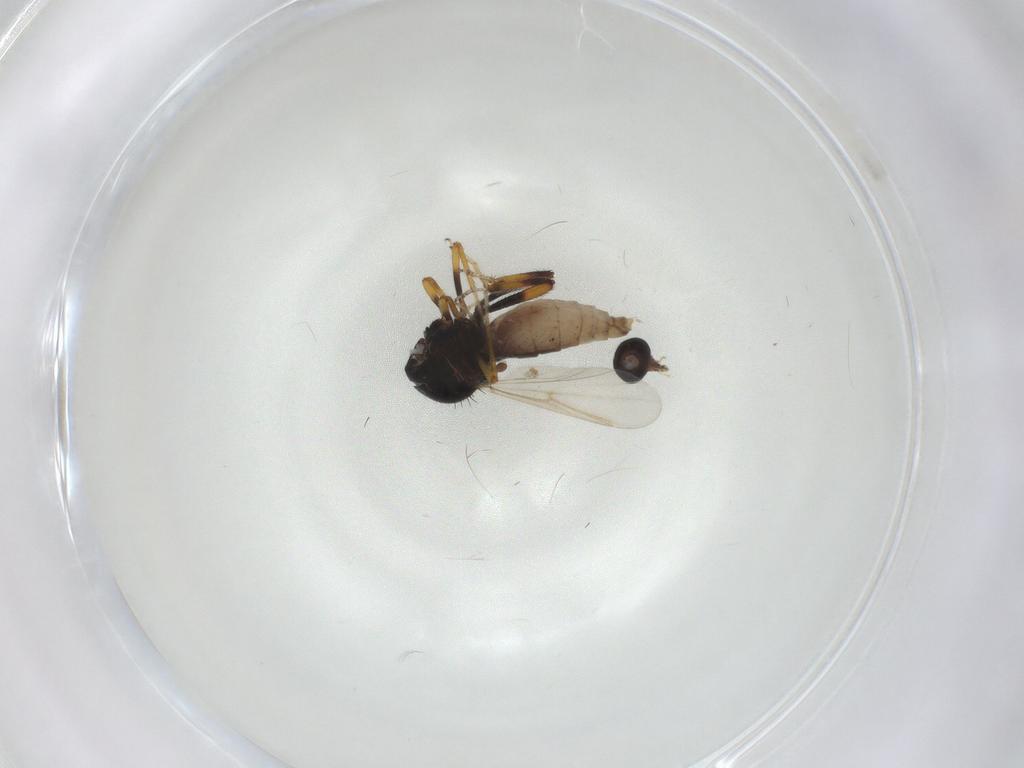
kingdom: Animalia
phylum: Arthropoda
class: Insecta
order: Diptera
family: Ceratopogonidae
